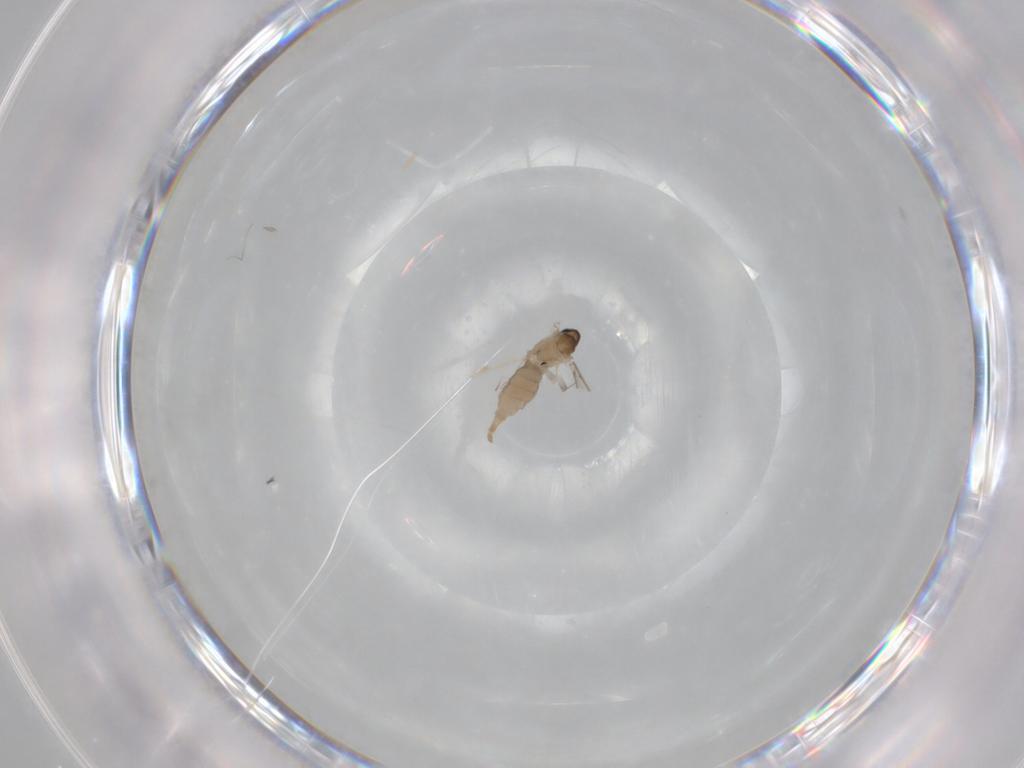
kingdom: Animalia
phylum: Arthropoda
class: Insecta
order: Diptera
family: Cecidomyiidae
